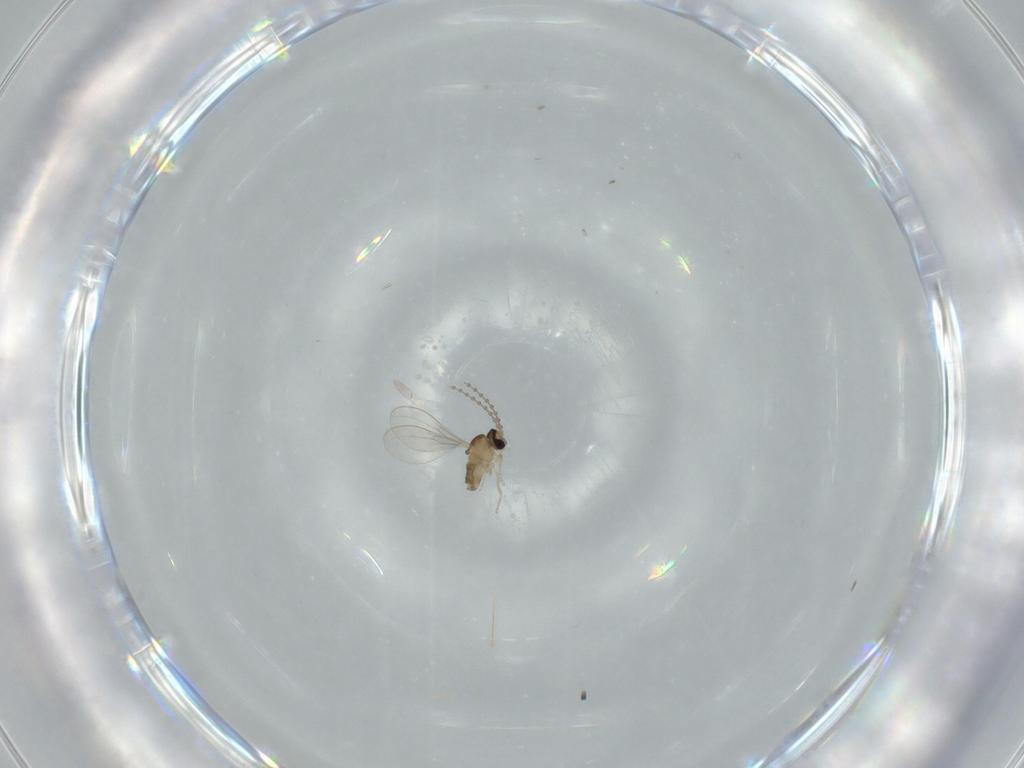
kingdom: Animalia
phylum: Arthropoda
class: Insecta
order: Diptera
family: Cecidomyiidae
